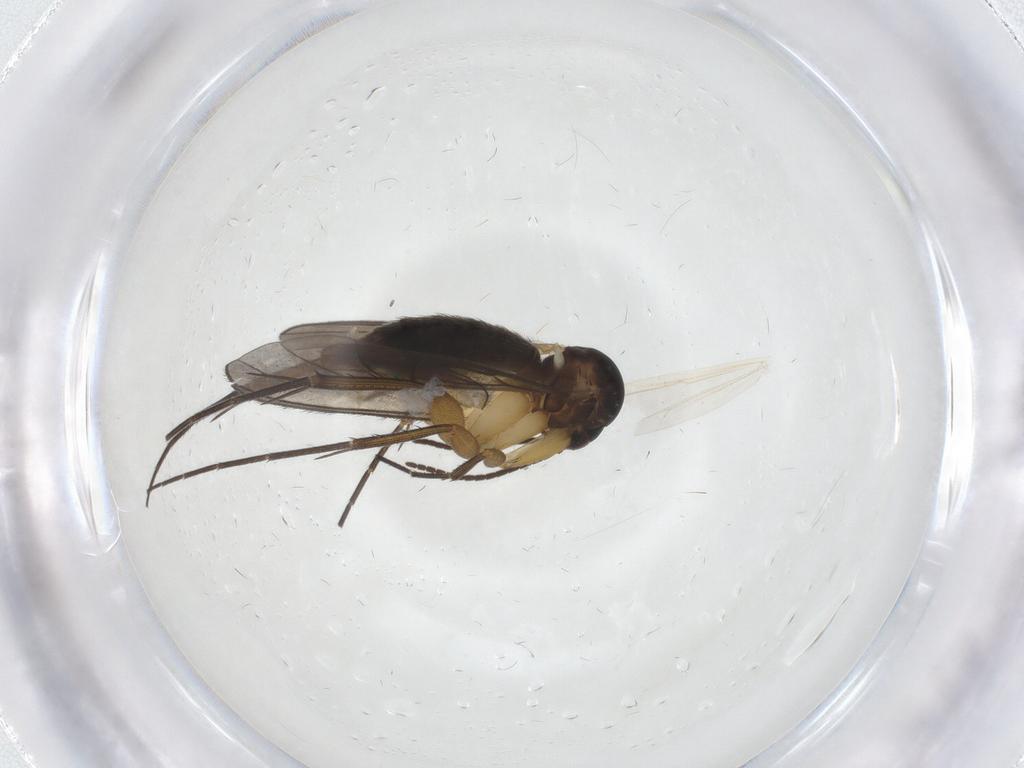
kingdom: Animalia
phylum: Arthropoda
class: Insecta
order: Diptera
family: Mycetophilidae
